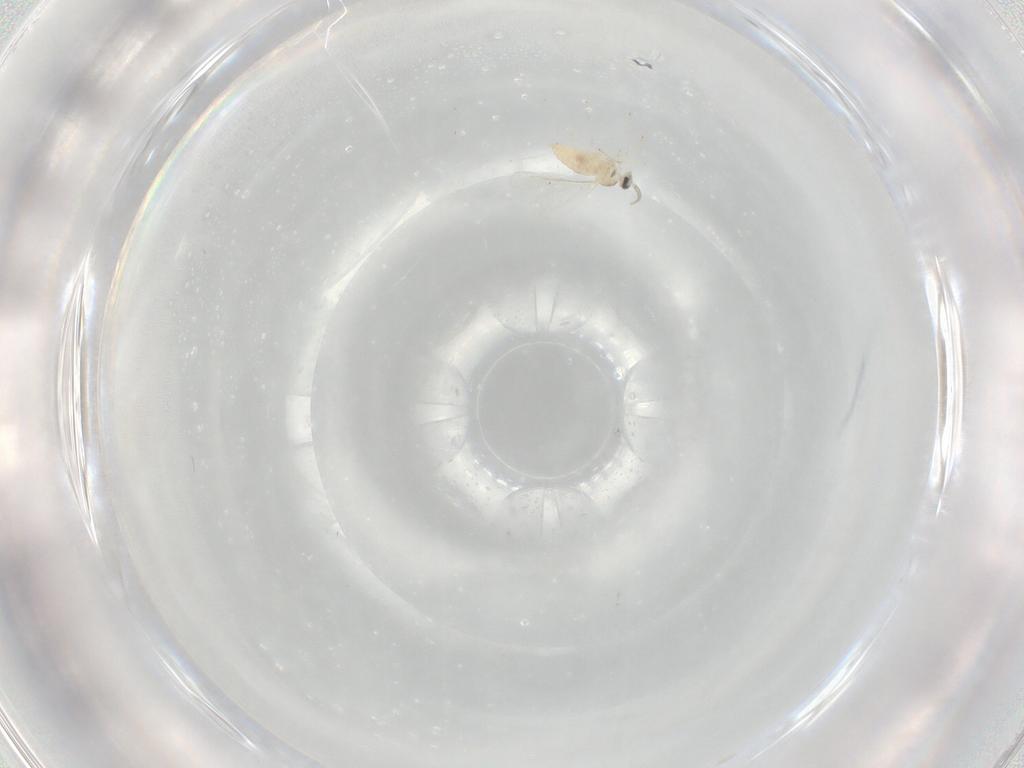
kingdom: Animalia
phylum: Arthropoda
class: Insecta
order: Diptera
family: Cecidomyiidae
